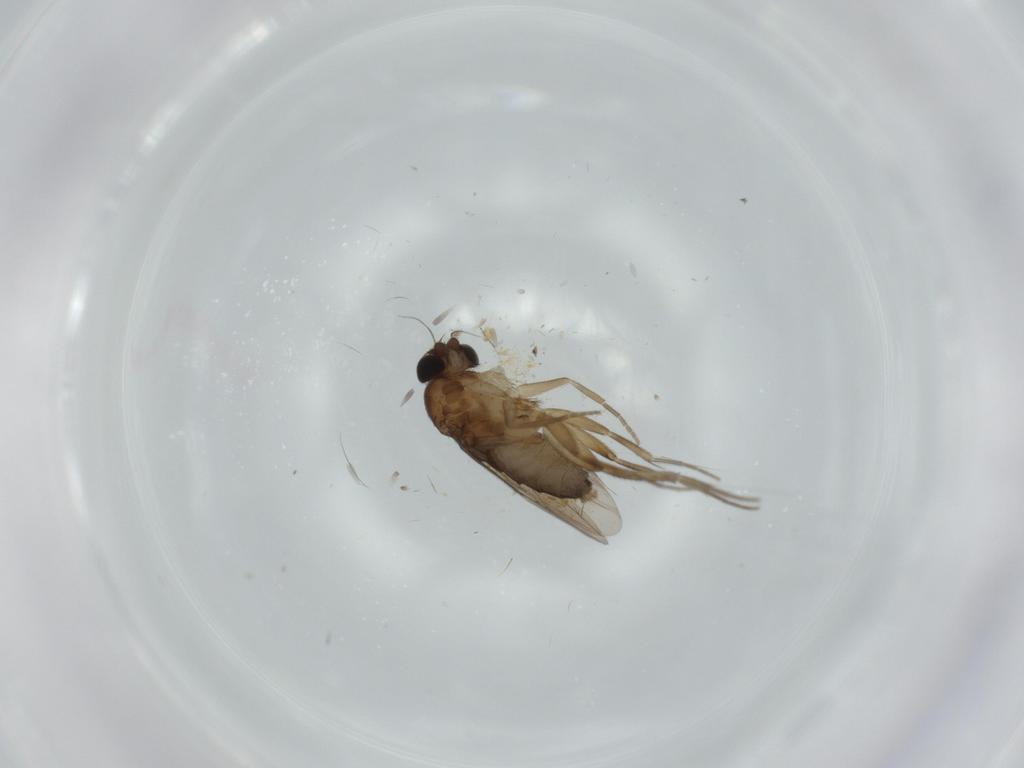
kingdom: Animalia
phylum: Arthropoda
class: Insecta
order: Diptera
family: Phoridae
